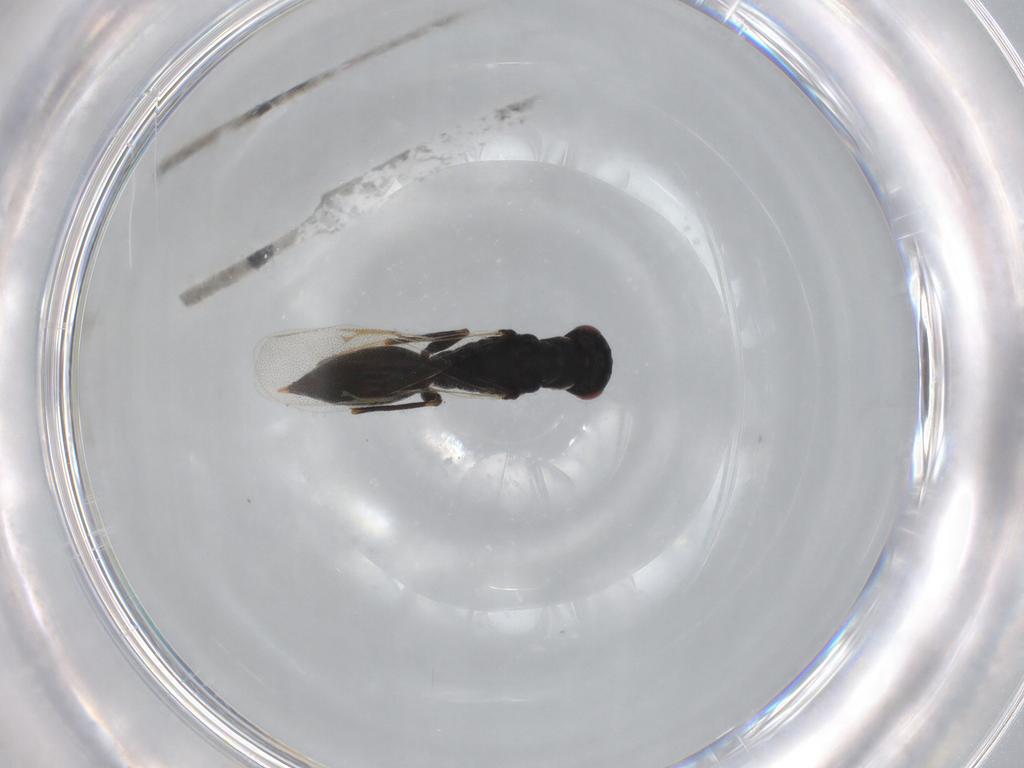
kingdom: Animalia
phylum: Arthropoda
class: Insecta
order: Hymenoptera
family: Eurytomidae
